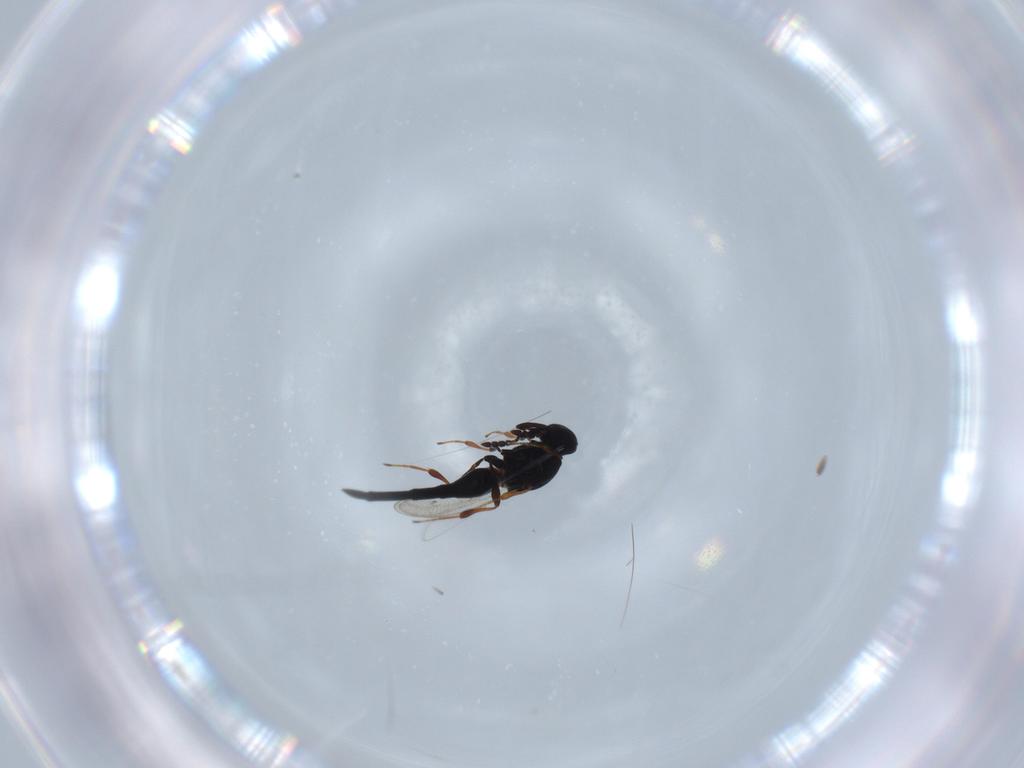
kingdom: Animalia
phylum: Arthropoda
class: Insecta
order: Hymenoptera
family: Platygastridae
